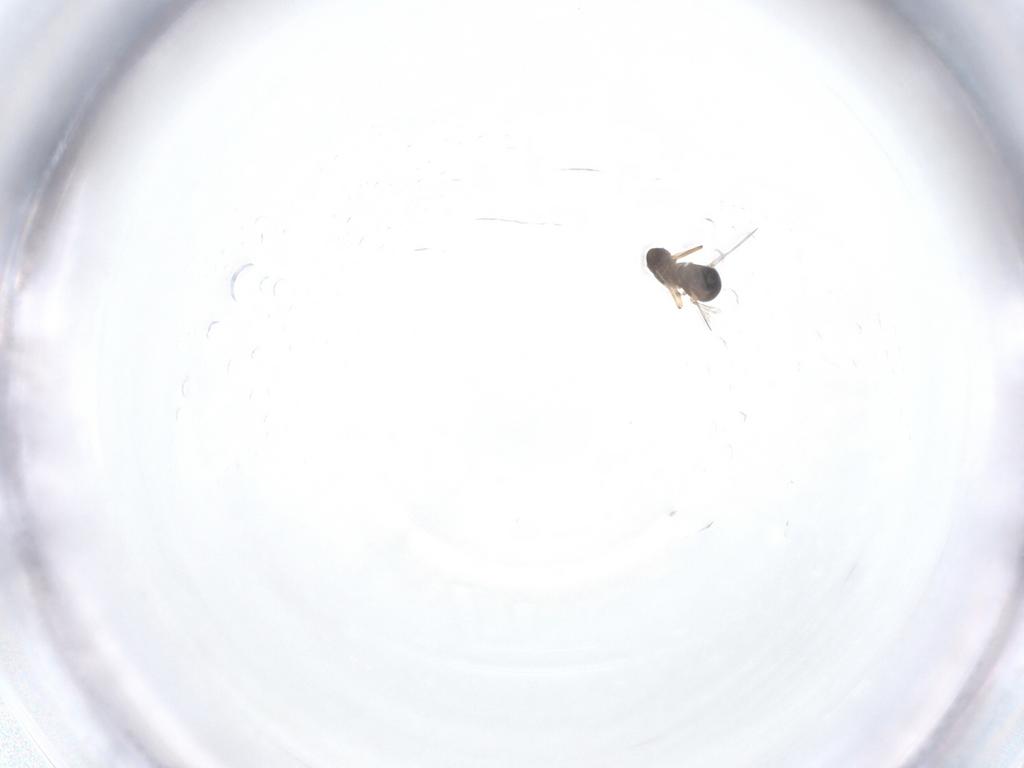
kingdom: Animalia
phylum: Arthropoda
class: Insecta
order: Diptera
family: Ceratopogonidae
